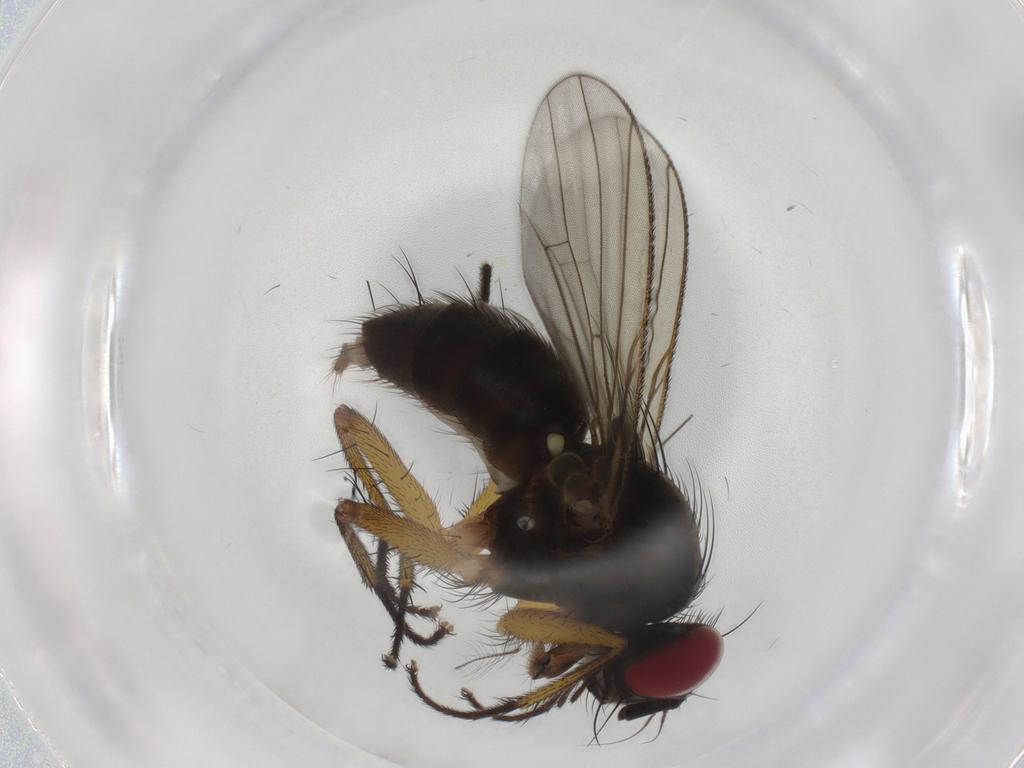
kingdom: Animalia
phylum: Arthropoda
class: Insecta
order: Diptera
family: Muscidae
